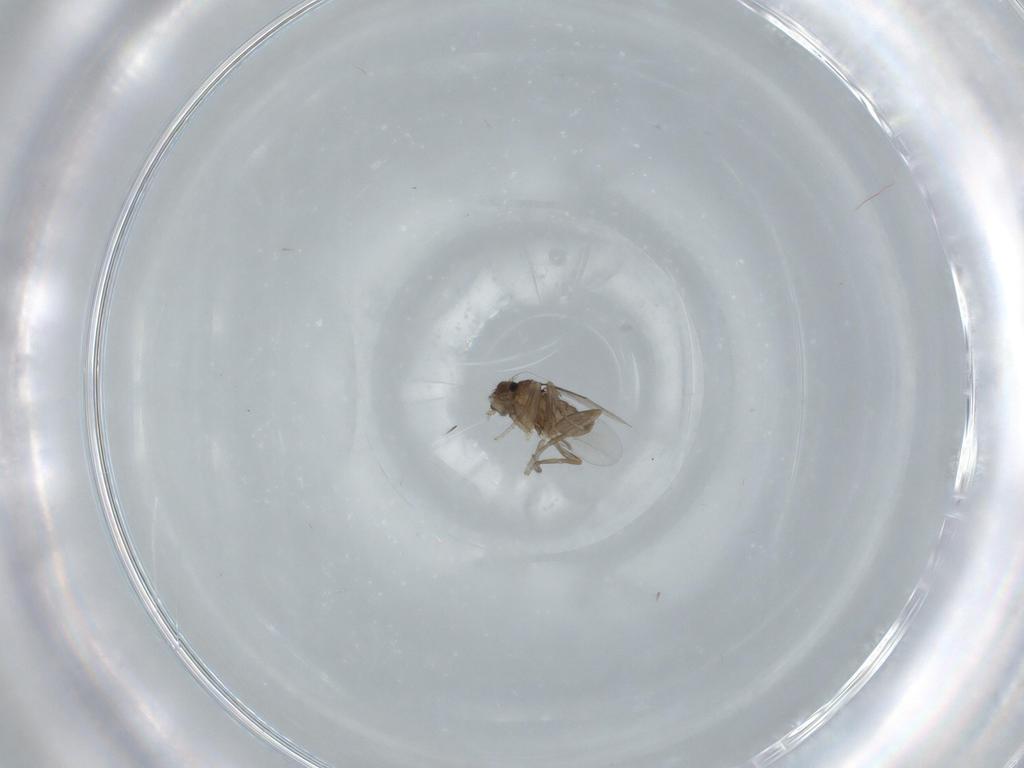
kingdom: Animalia
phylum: Arthropoda
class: Insecta
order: Diptera
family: Phoridae
